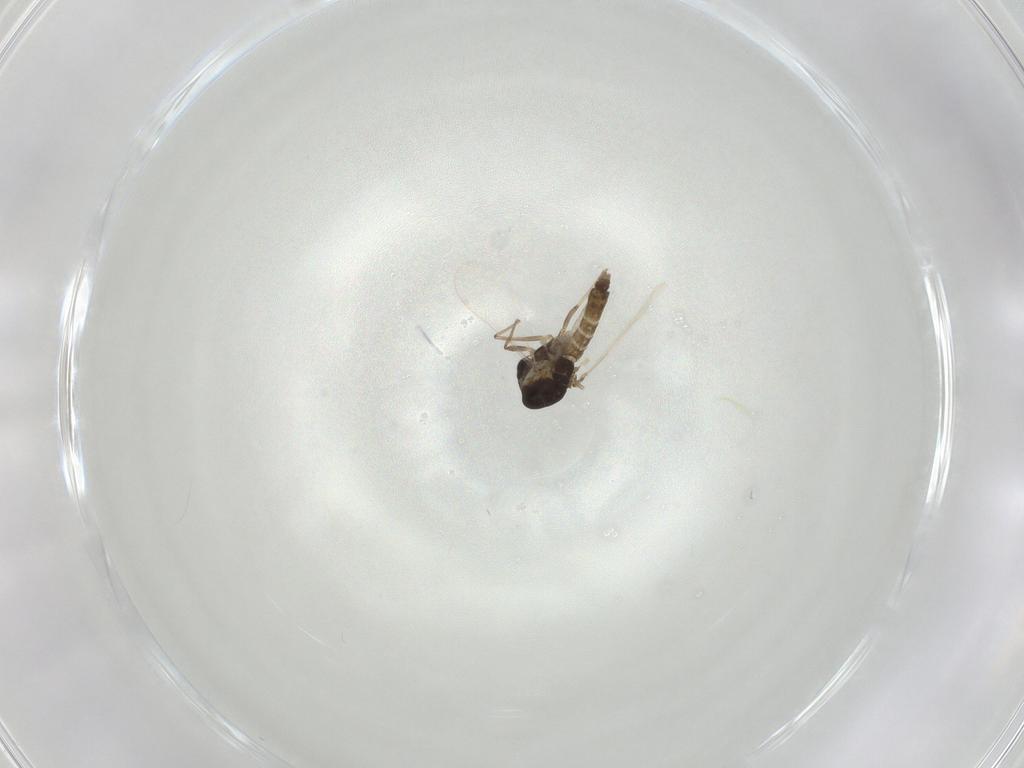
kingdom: Animalia
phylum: Arthropoda
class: Insecta
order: Diptera
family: Chironomidae
